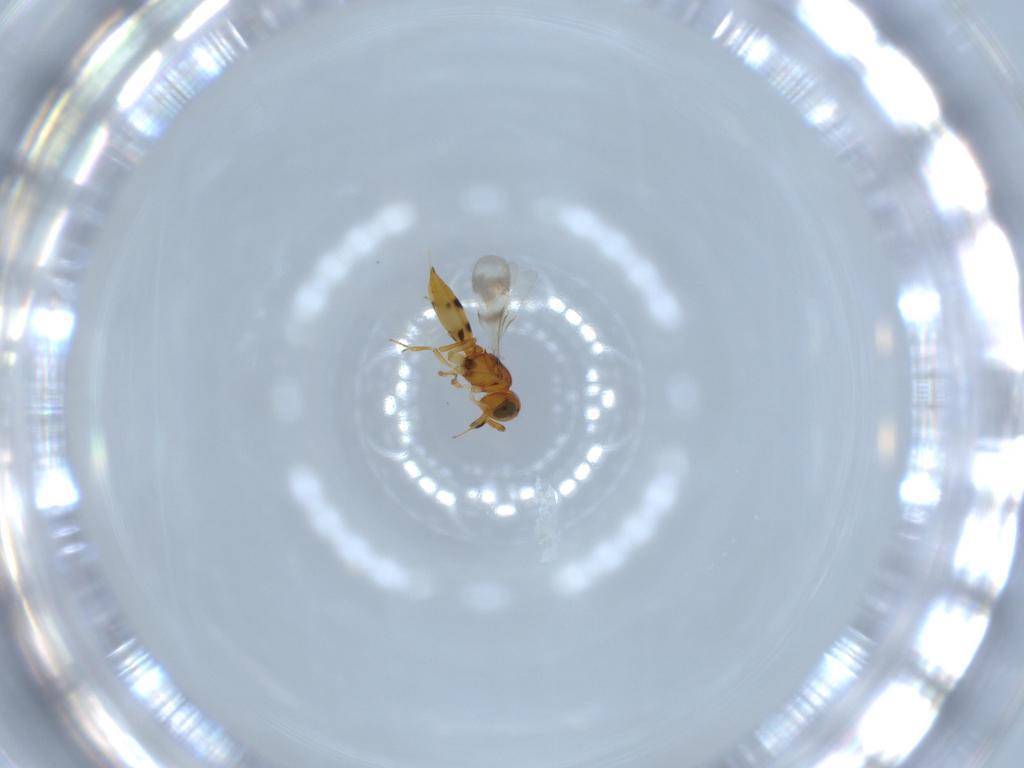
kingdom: Animalia
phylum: Arthropoda
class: Insecta
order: Hymenoptera
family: Scelionidae
